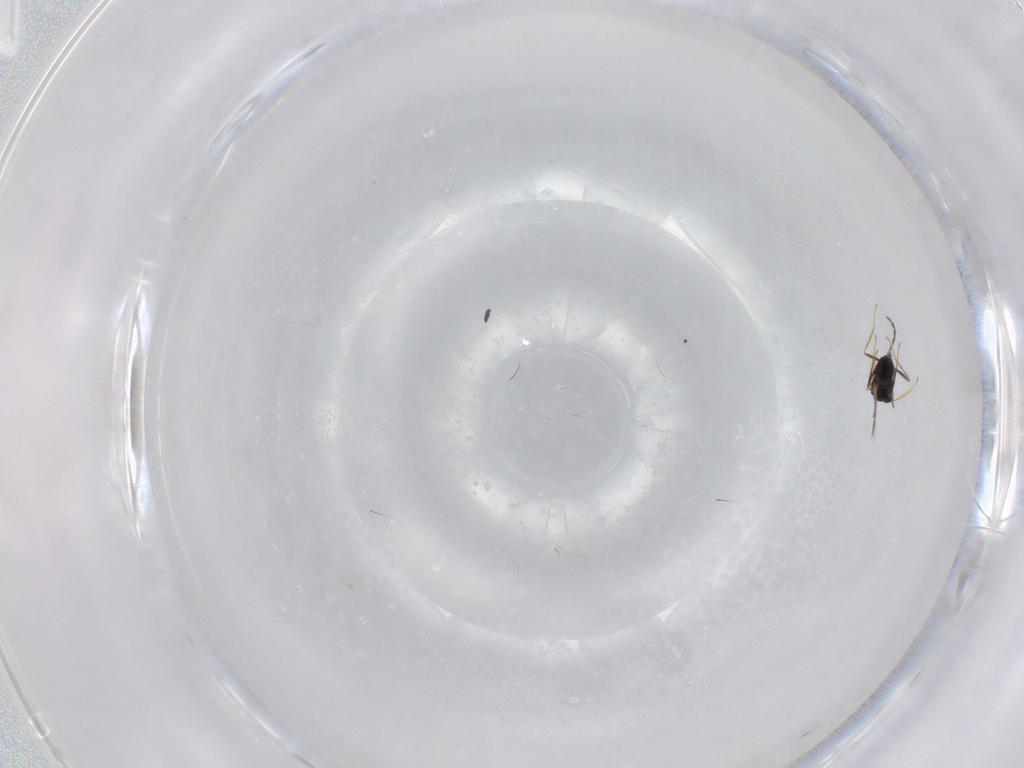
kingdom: Animalia
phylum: Arthropoda
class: Insecta
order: Hymenoptera
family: Mymaridae
